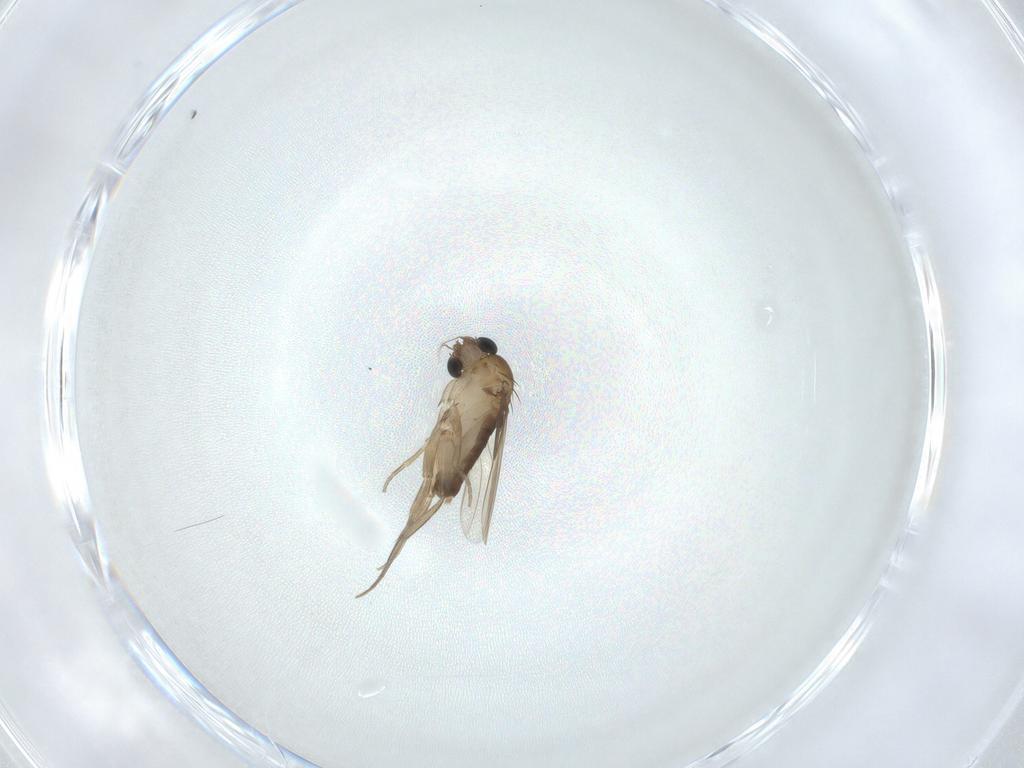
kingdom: Animalia
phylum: Arthropoda
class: Insecta
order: Diptera
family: Phoridae
